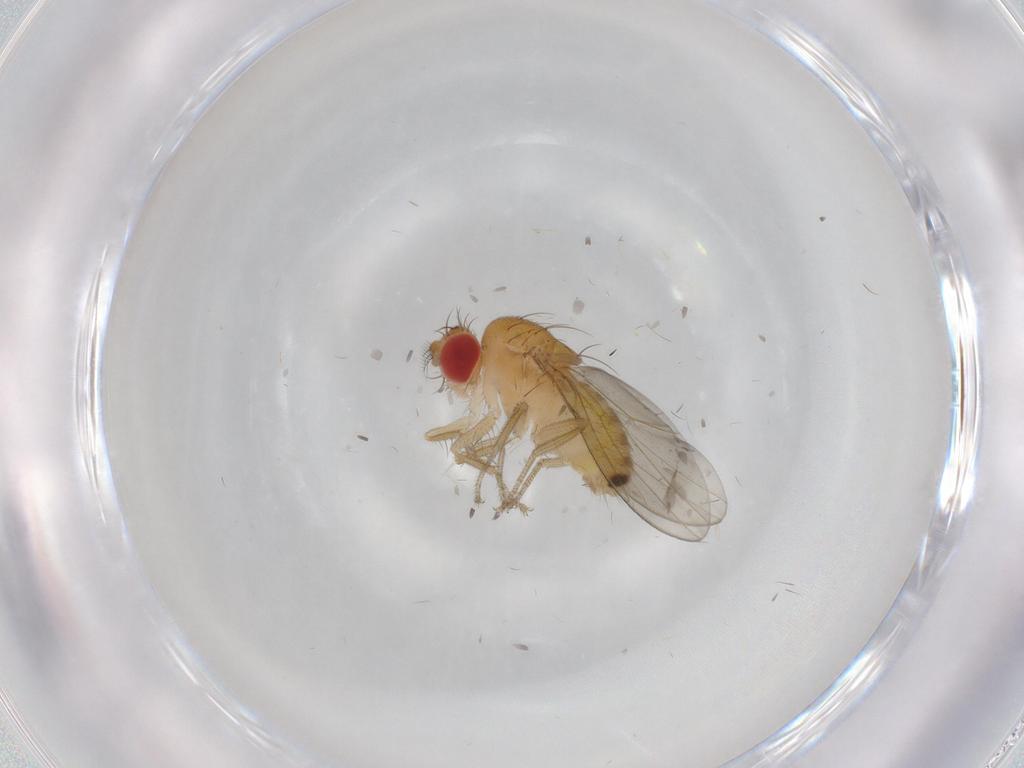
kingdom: Animalia
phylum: Arthropoda
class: Insecta
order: Diptera
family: Drosophilidae
